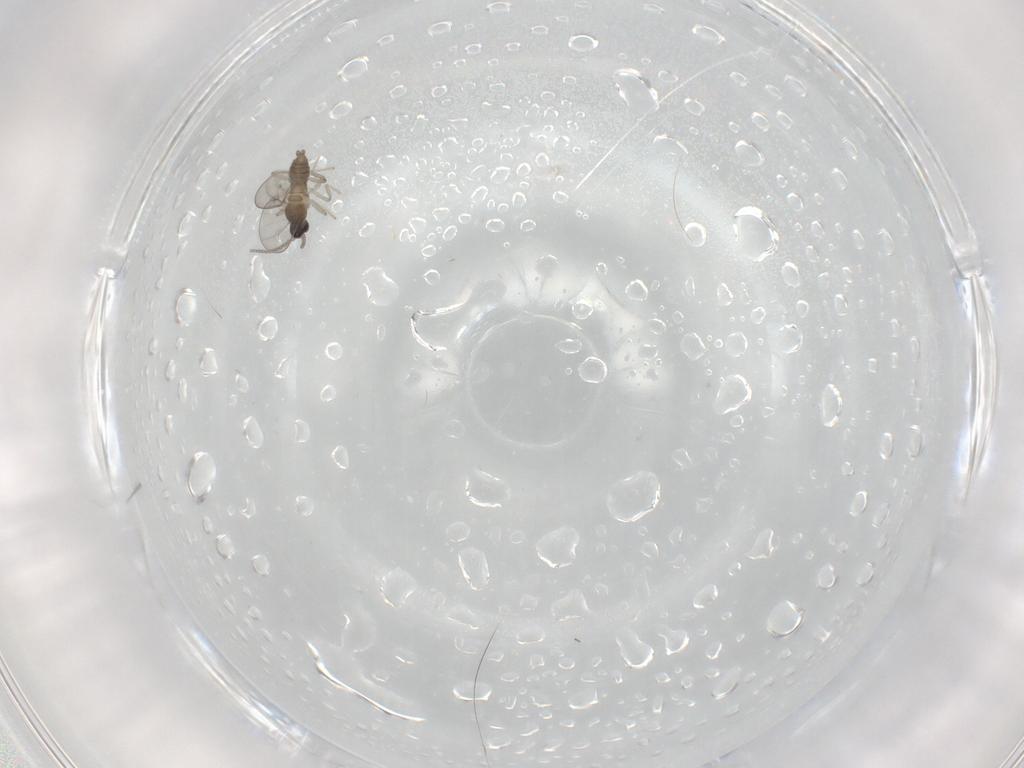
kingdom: Animalia
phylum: Arthropoda
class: Insecta
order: Diptera
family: Cecidomyiidae
